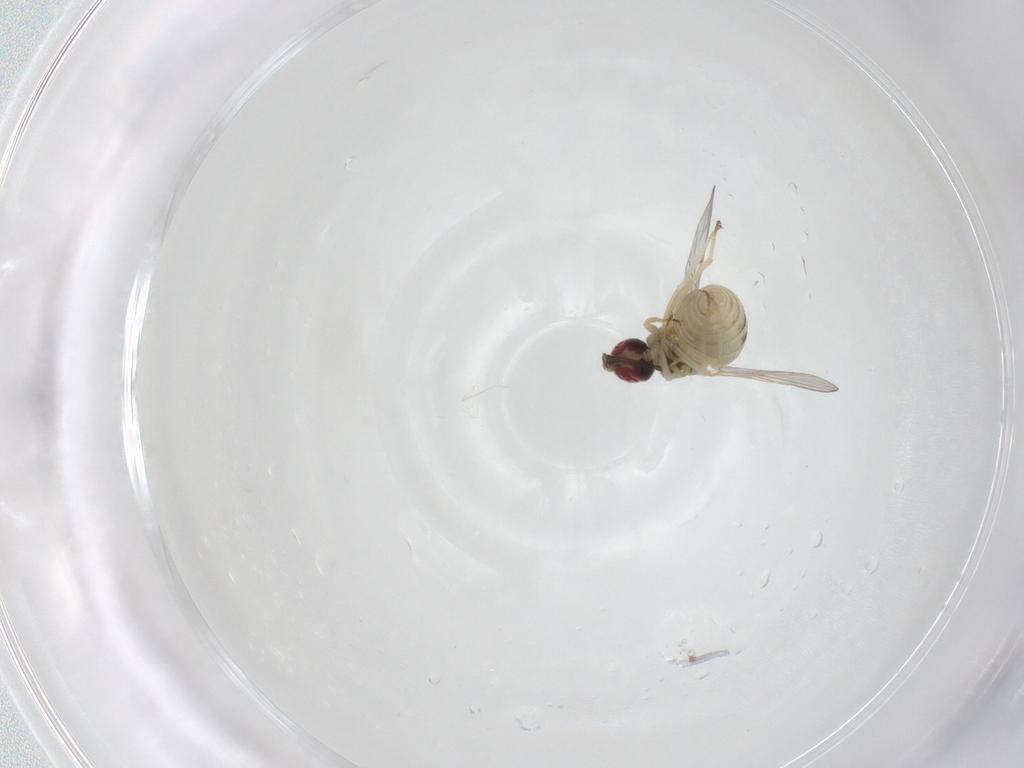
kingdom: Animalia
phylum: Arthropoda
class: Insecta
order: Diptera
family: Bombyliidae
